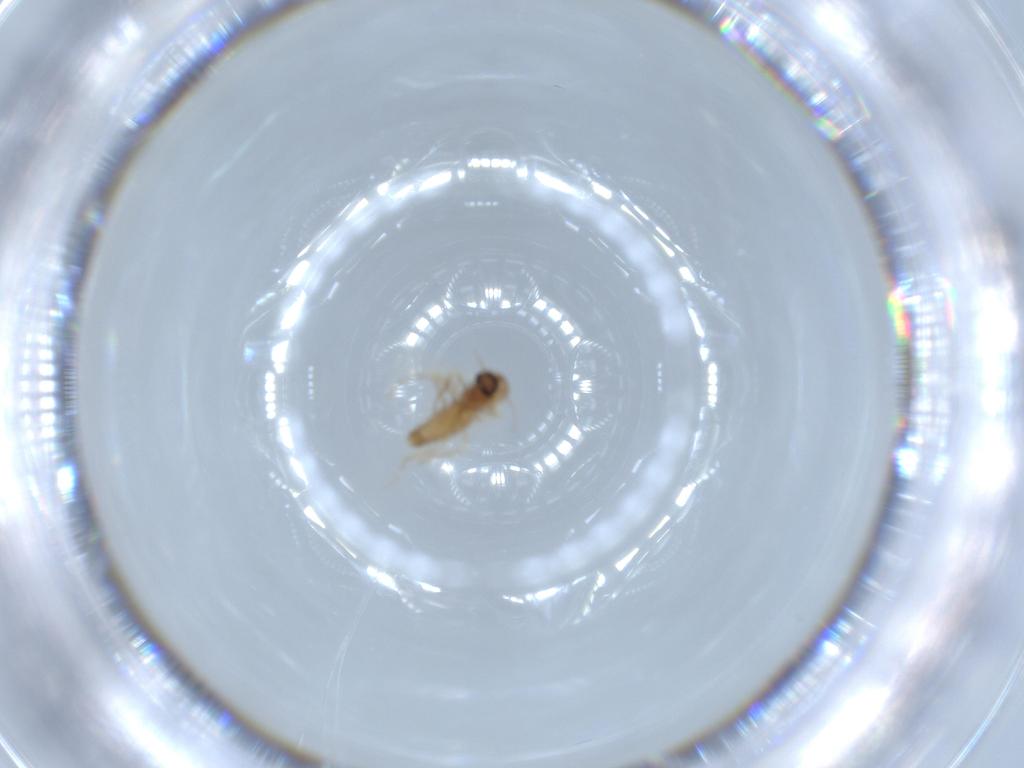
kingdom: Animalia
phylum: Arthropoda
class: Insecta
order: Diptera
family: Ceratopogonidae
